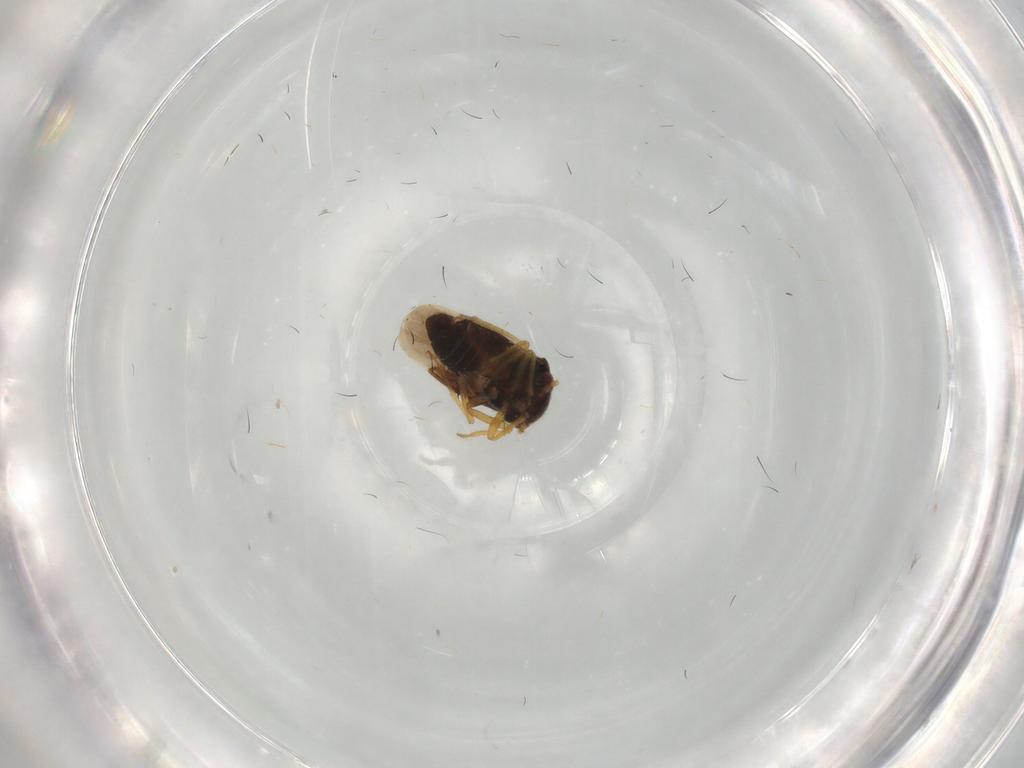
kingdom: Animalia
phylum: Arthropoda
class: Insecta
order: Hemiptera
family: Schizopteridae
